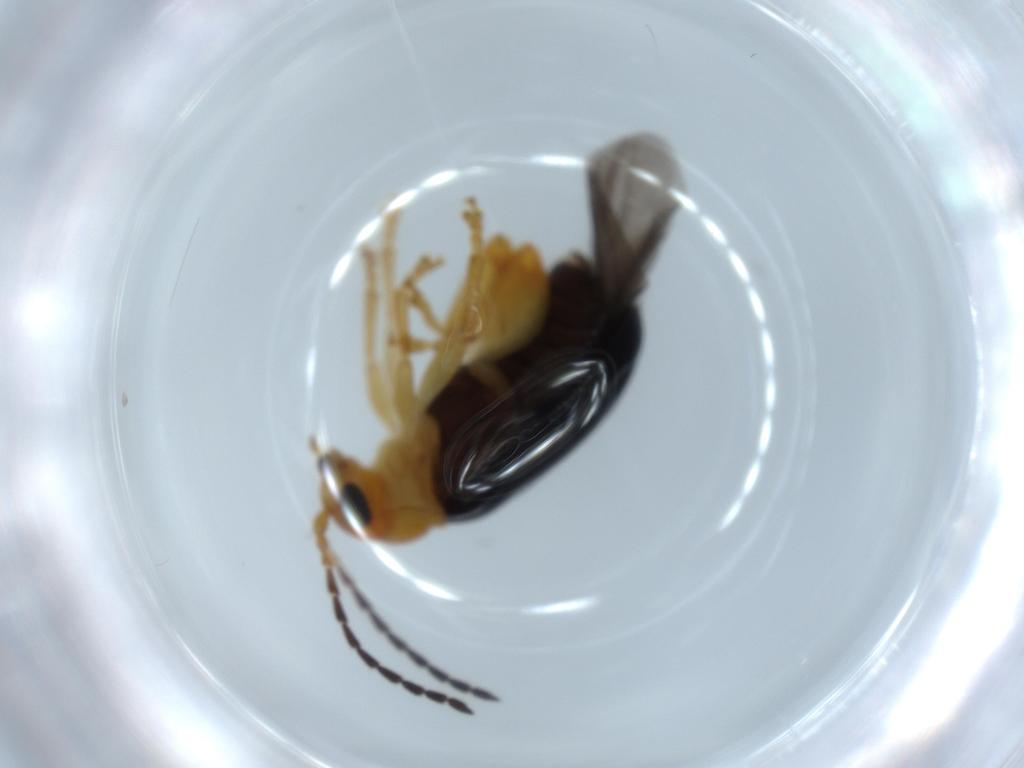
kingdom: Animalia
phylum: Arthropoda
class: Insecta
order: Coleoptera
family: Chrysomelidae
